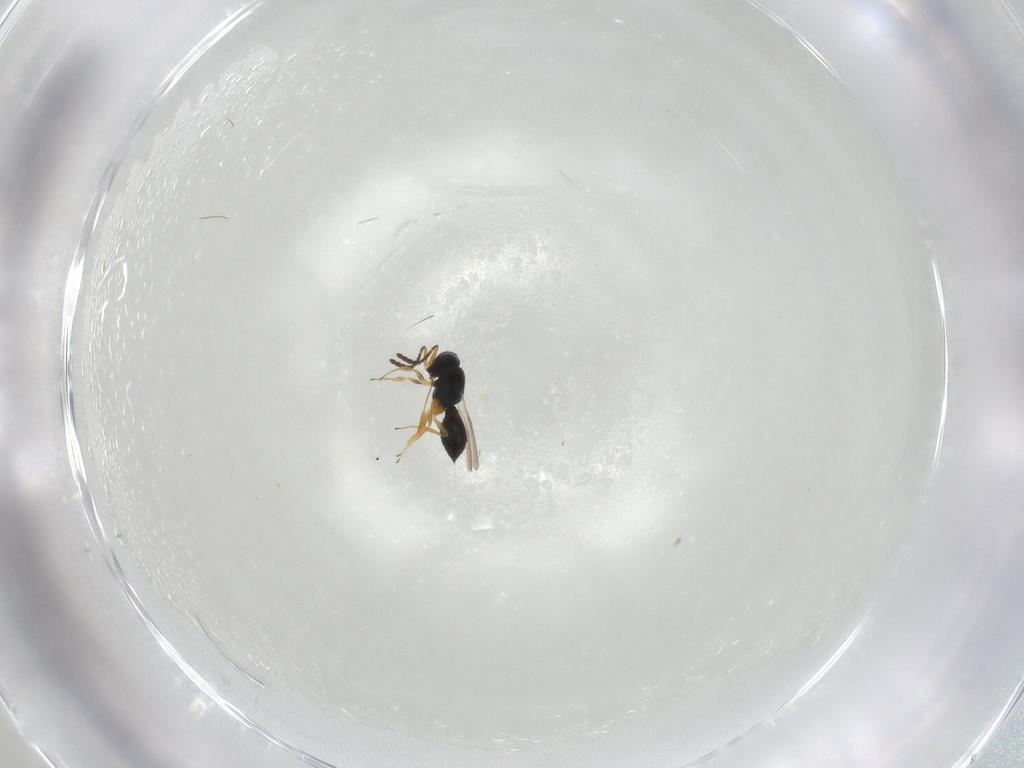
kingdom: Animalia
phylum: Arthropoda
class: Insecta
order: Hymenoptera
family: Scelionidae
